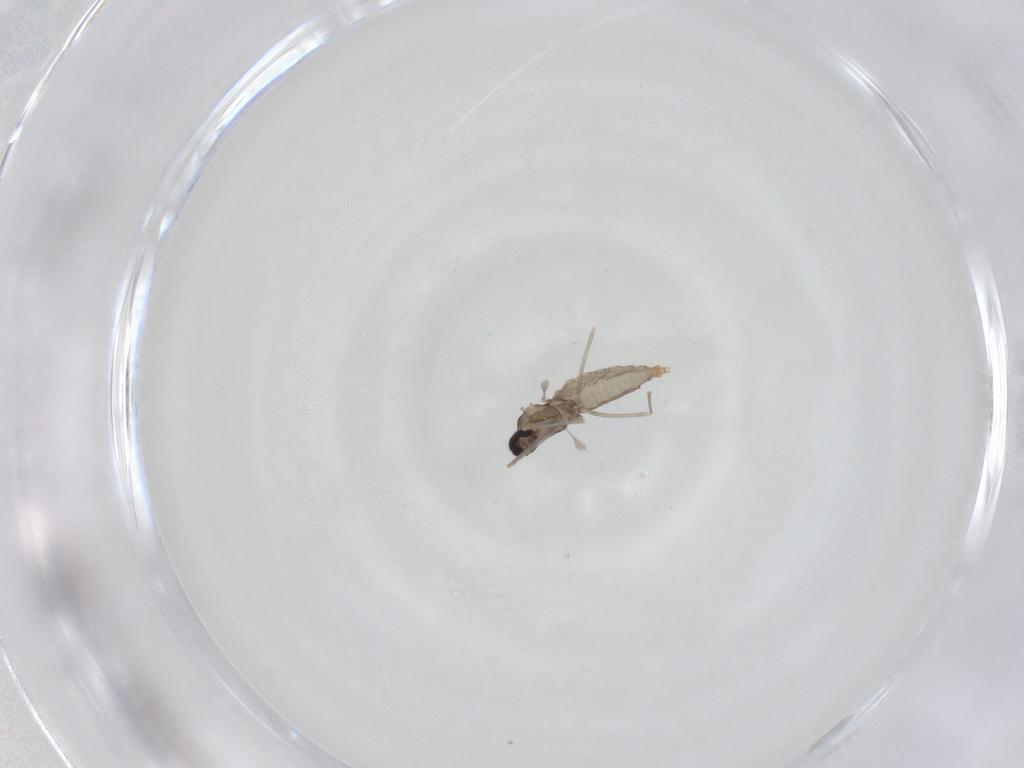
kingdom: Animalia
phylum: Arthropoda
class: Insecta
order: Diptera
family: Cecidomyiidae
